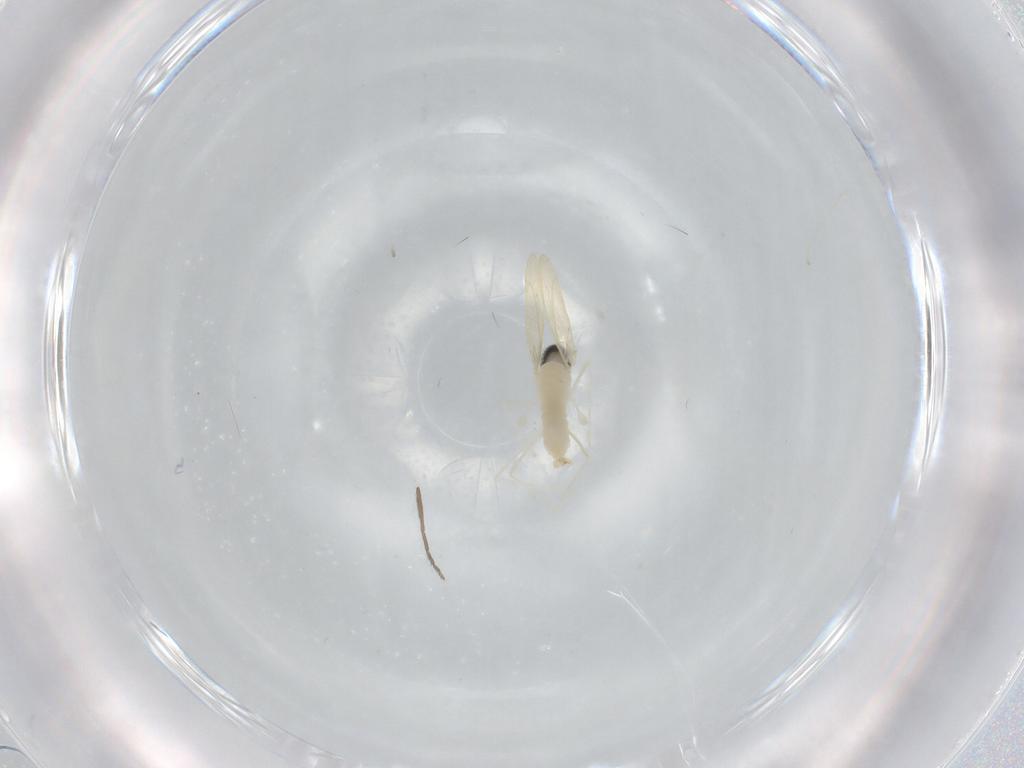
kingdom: Animalia
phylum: Arthropoda
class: Insecta
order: Diptera
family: Chironomidae
